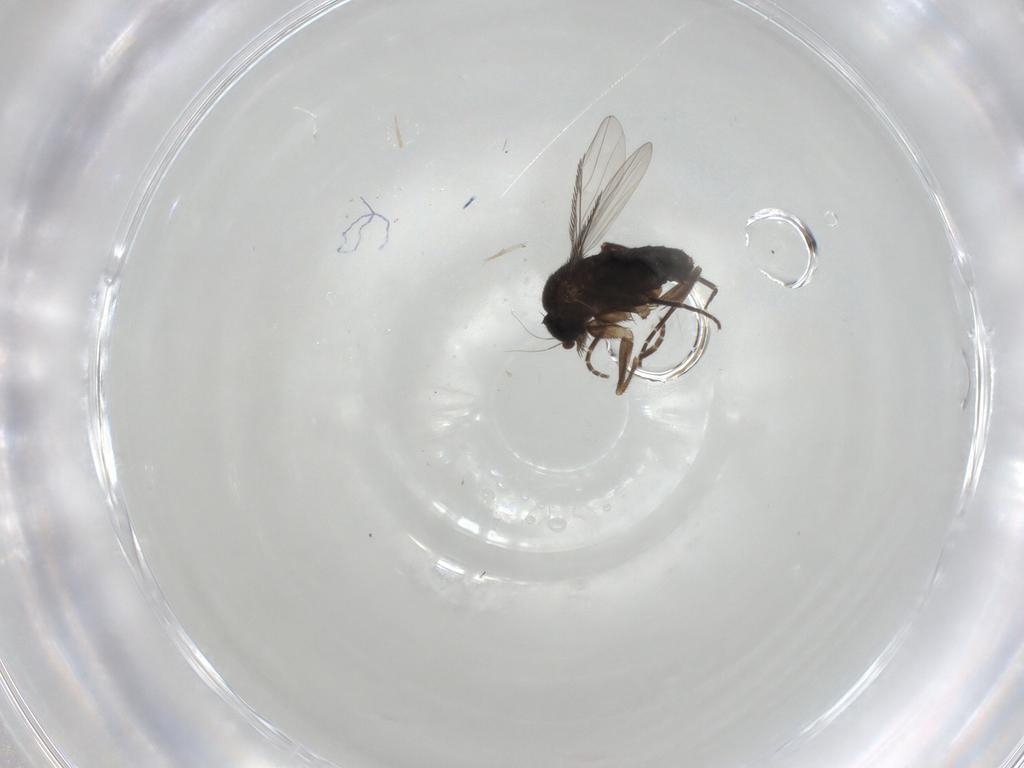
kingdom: Animalia
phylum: Arthropoda
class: Insecta
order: Diptera
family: Phoridae
